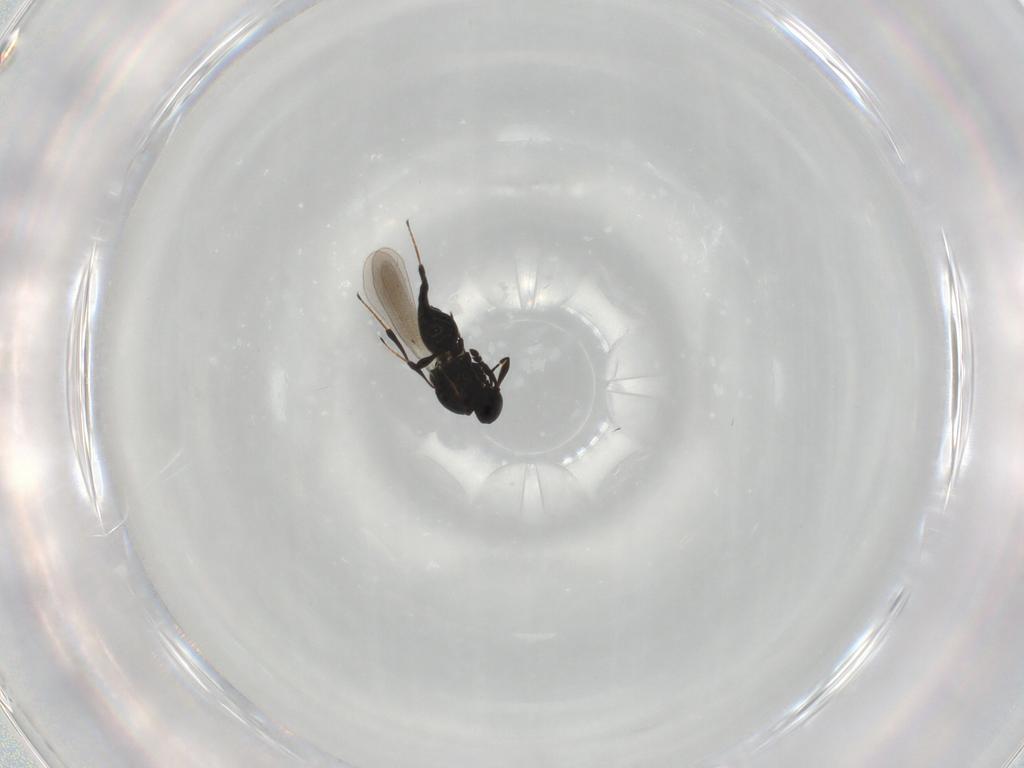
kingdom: Animalia
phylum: Arthropoda
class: Insecta
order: Hymenoptera
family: Platygastridae
